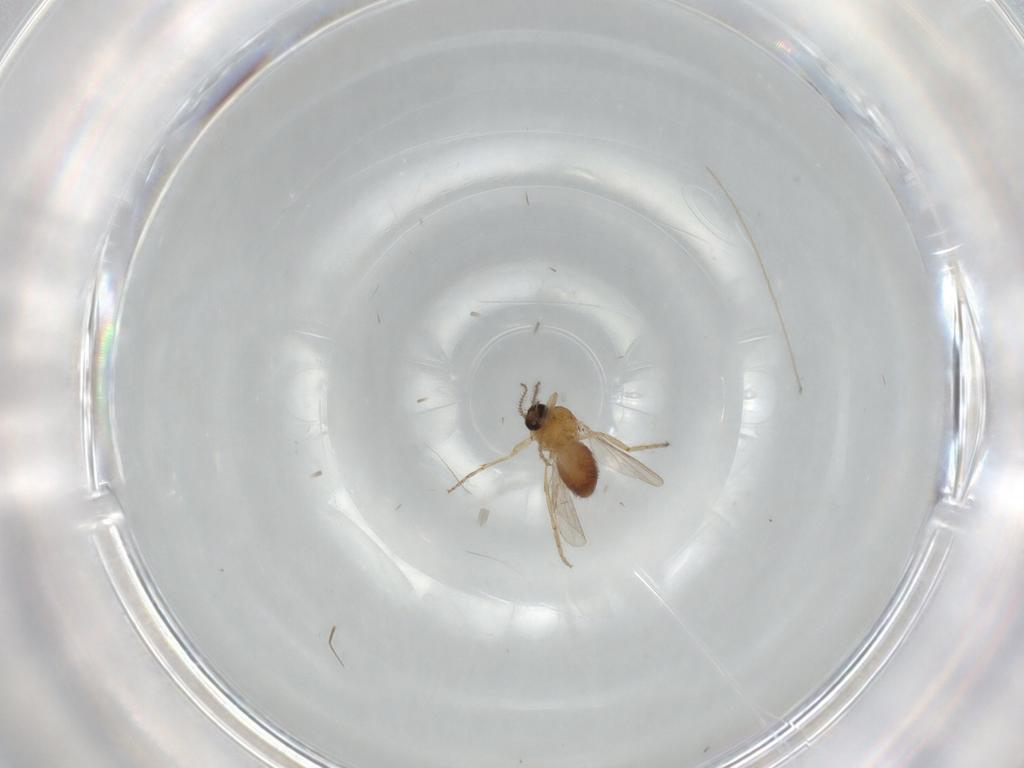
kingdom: Animalia
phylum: Arthropoda
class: Insecta
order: Diptera
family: Ceratopogonidae
